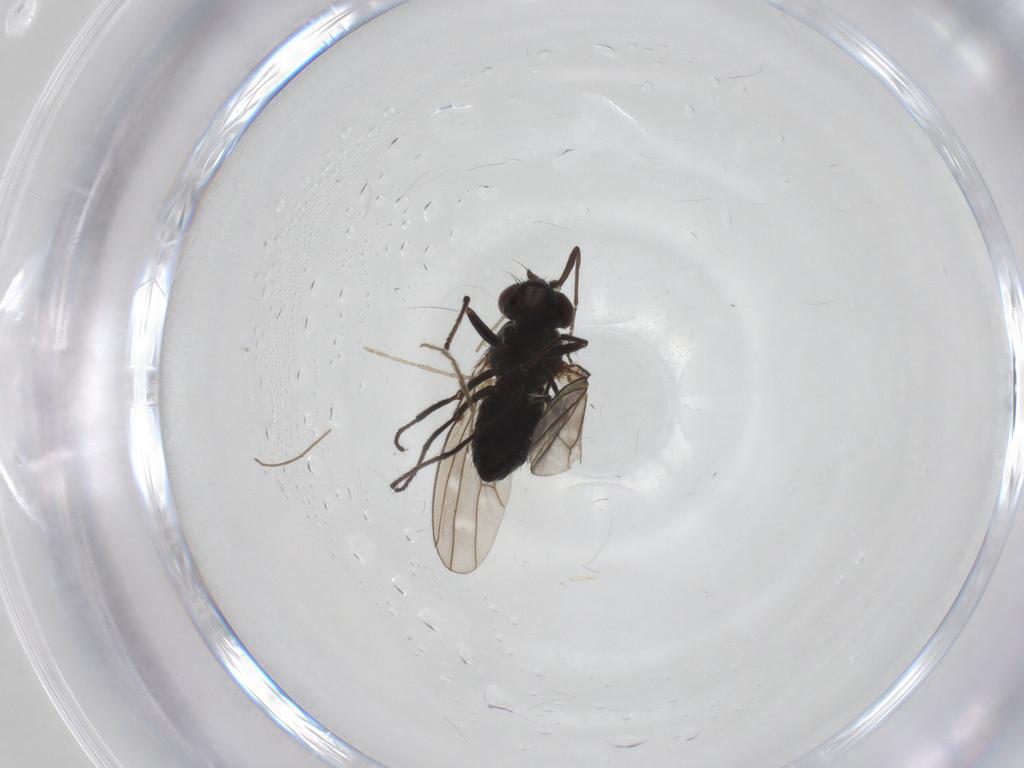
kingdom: Animalia
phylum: Arthropoda
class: Insecta
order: Diptera
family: Ephydridae
